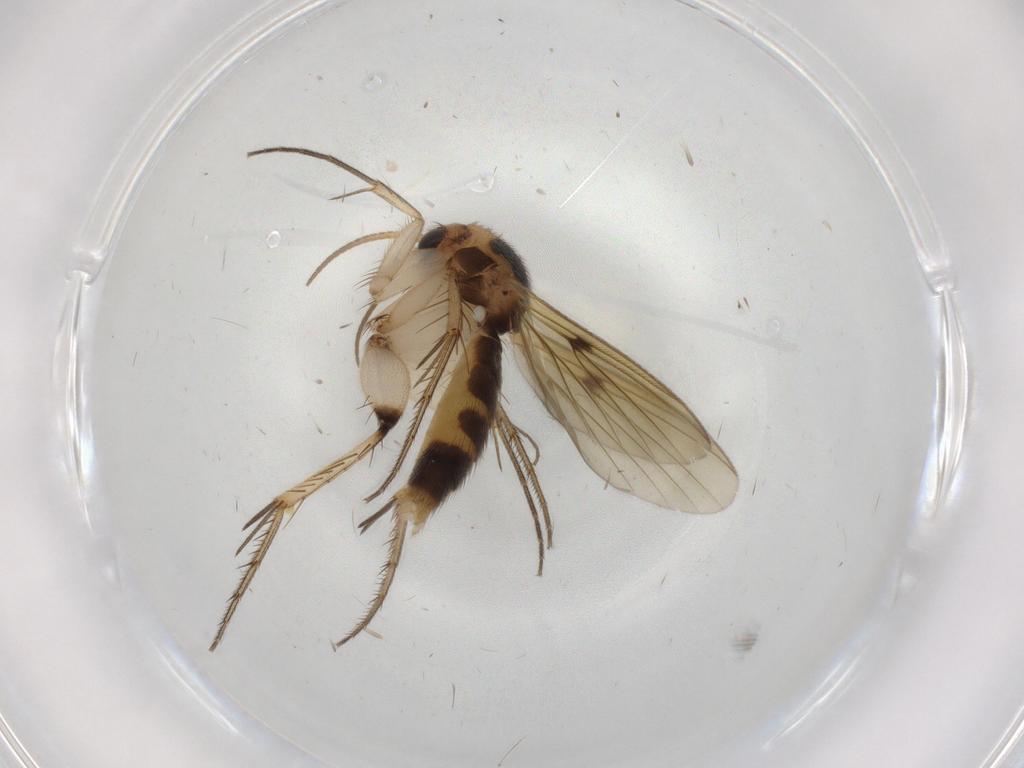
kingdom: Animalia
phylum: Arthropoda
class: Insecta
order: Diptera
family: Mycetophilidae
